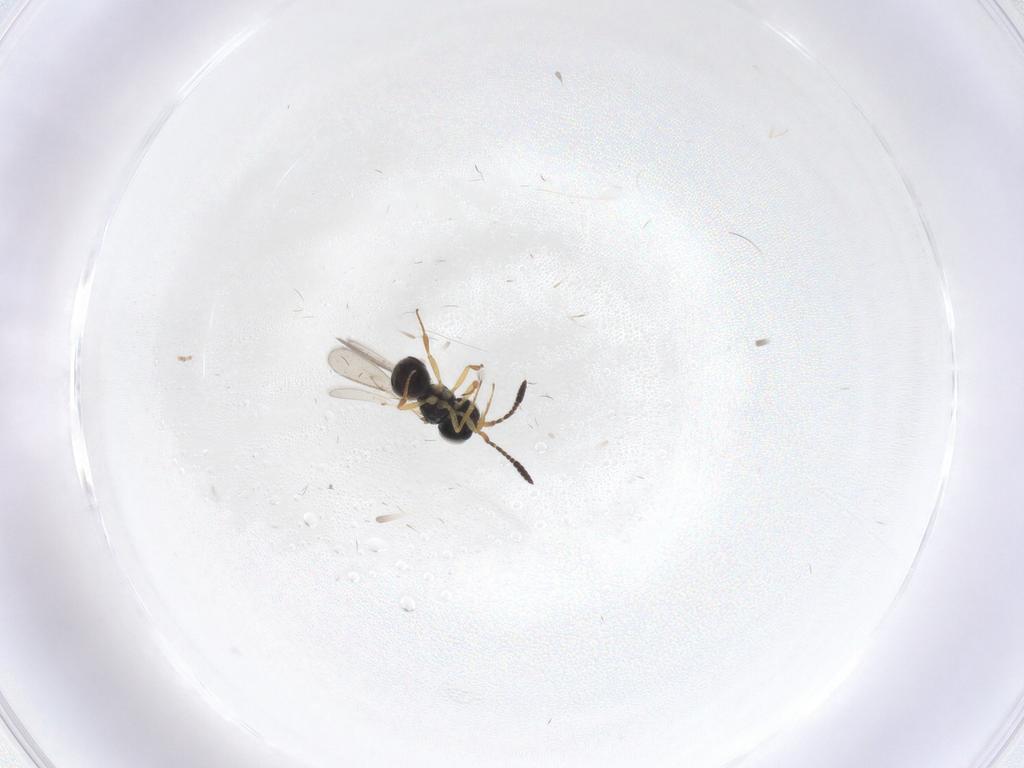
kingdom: Animalia
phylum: Arthropoda
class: Insecta
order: Hymenoptera
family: Scelionidae
